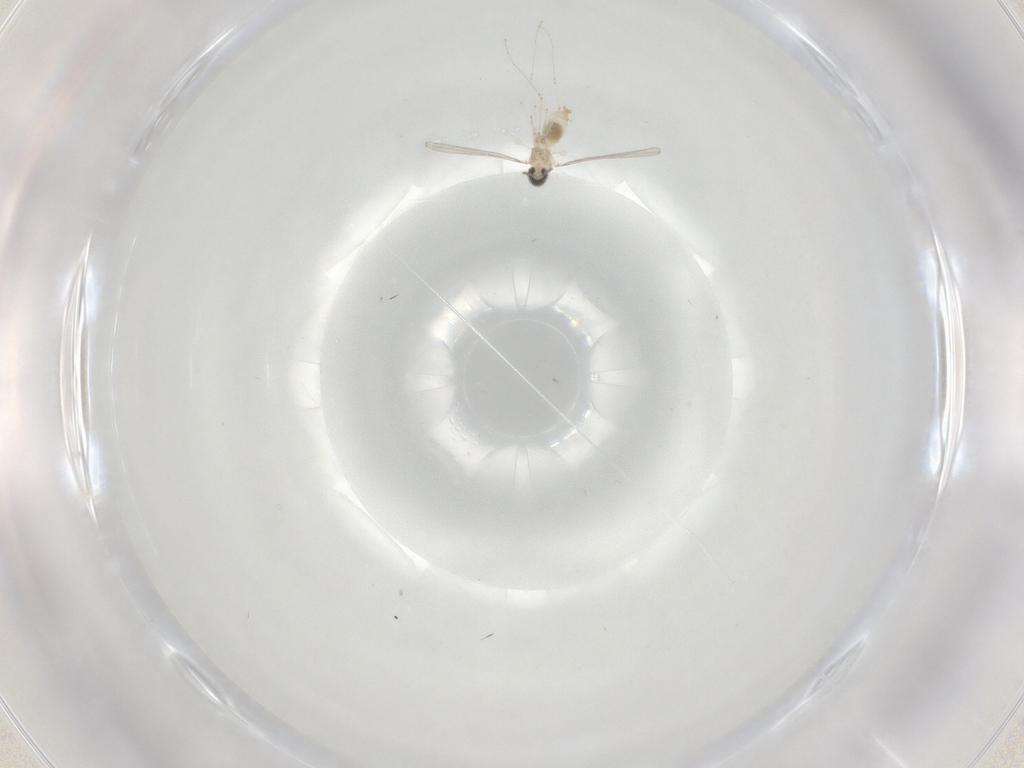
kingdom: Animalia
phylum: Arthropoda
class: Insecta
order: Diptera
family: Cecidomyiidae
